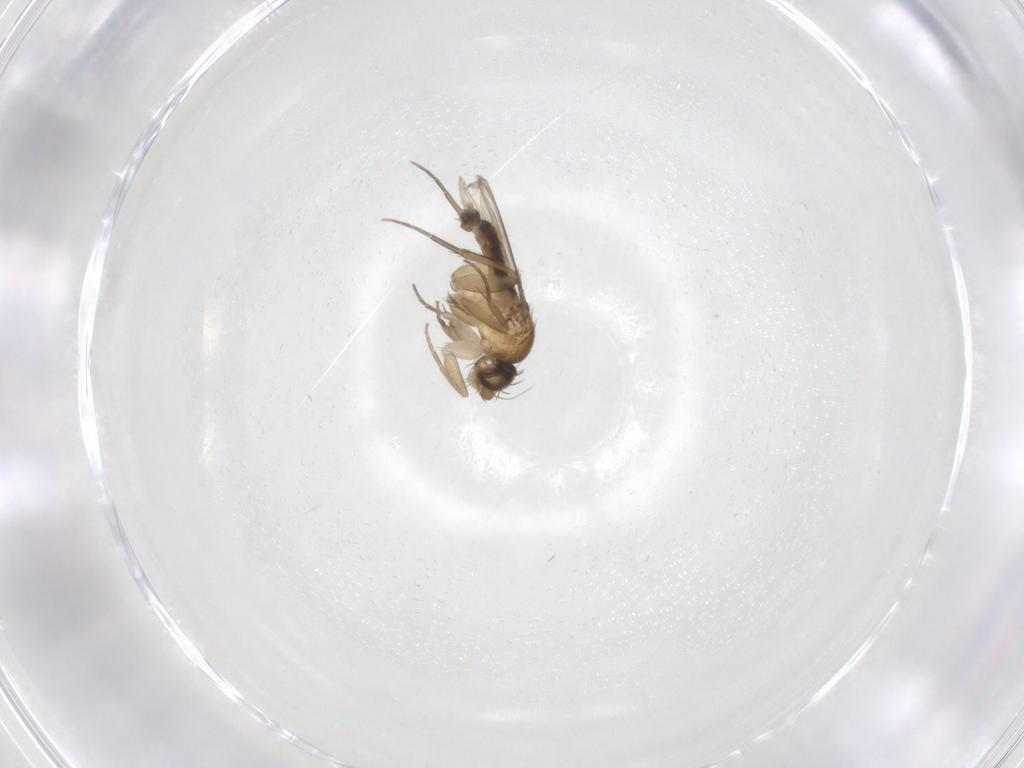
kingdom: Animalia
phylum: Arthropoda
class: Insecta
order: Diptera
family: Cecidomyiidae
